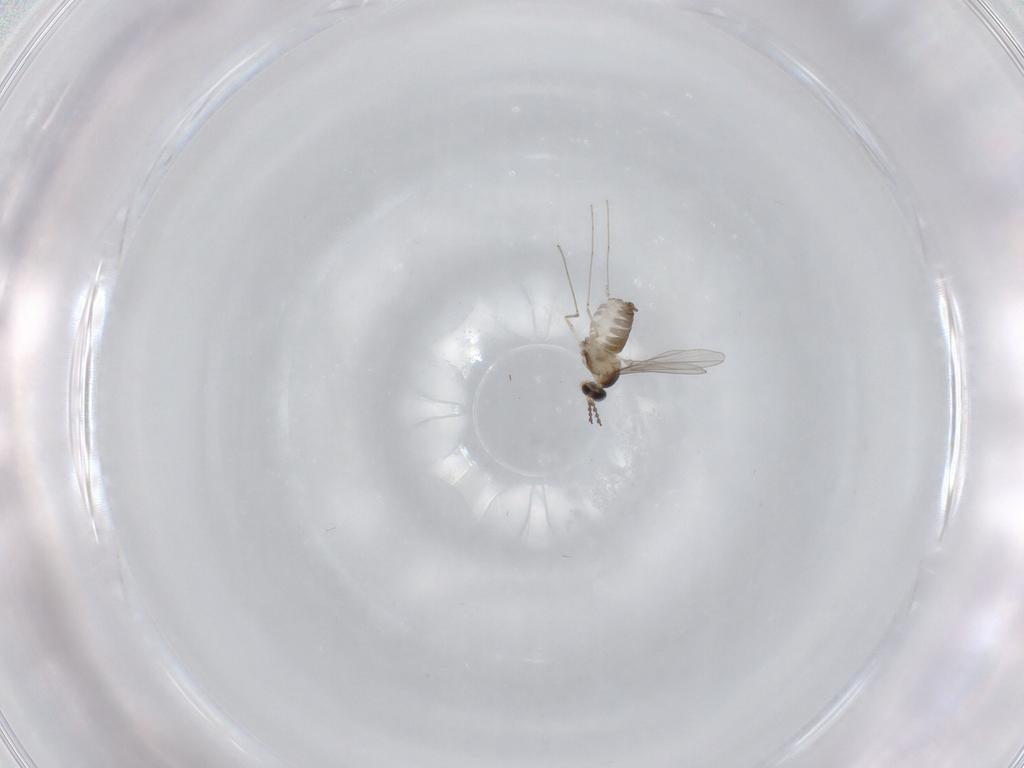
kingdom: Animalia
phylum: Arthropoda
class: Insecta
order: Diptera
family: Cecidomyiidae
